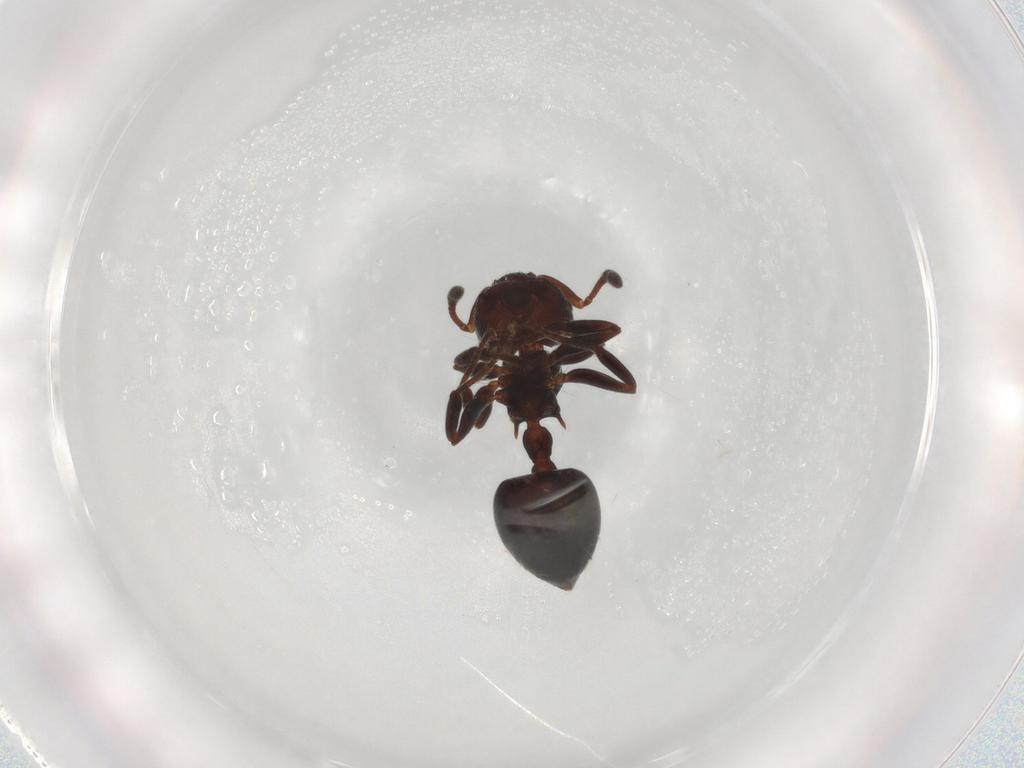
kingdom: Animalia
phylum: Arthropoda
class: Insecta
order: Hymenoptera
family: Formicidae
